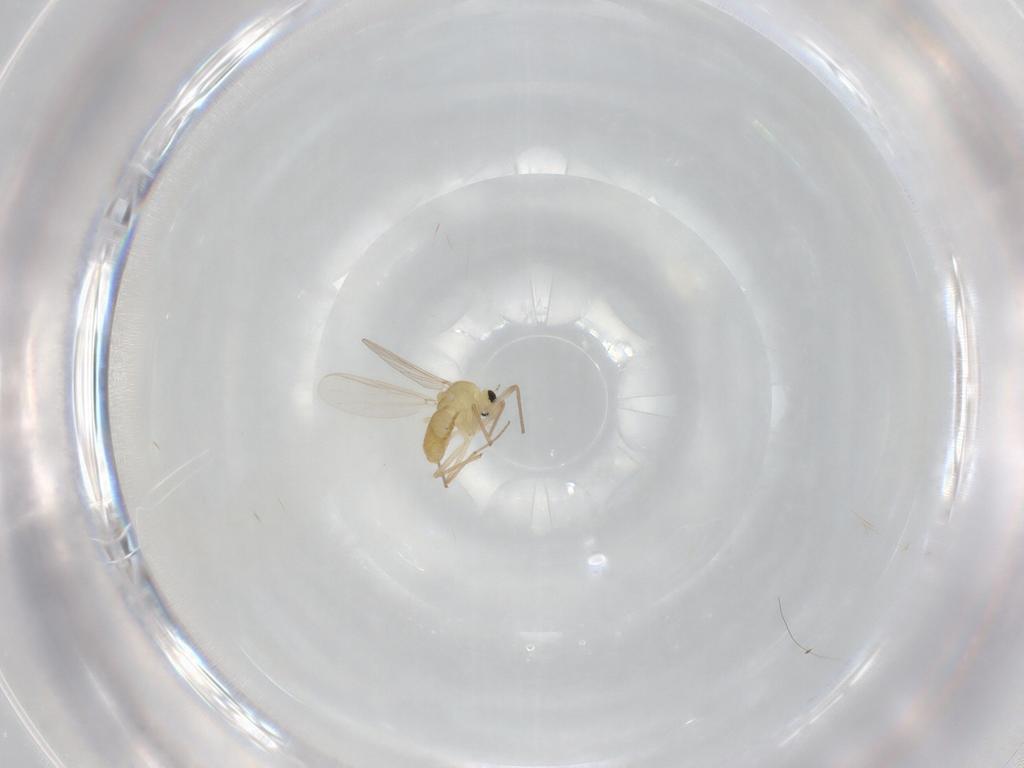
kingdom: Animalia
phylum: Arthropoda
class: Insecta
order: Diptera
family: Chironomidae
